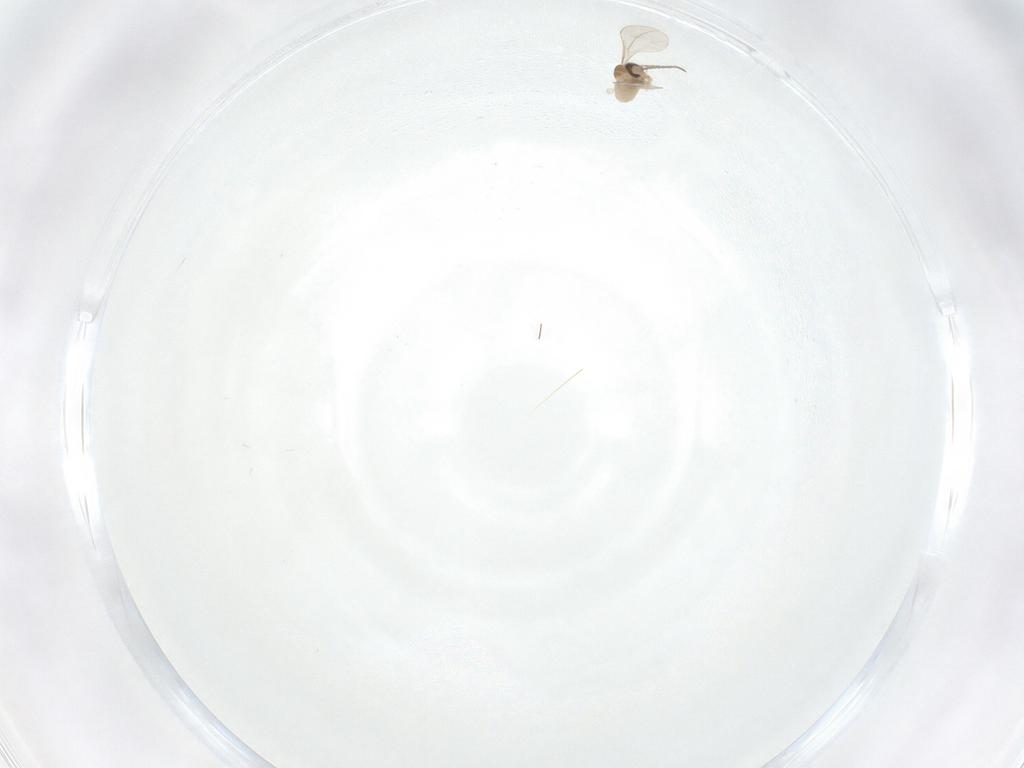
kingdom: Animalia
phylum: Arthropoda
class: Insecta
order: Diptera
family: Cecidomyiidae
